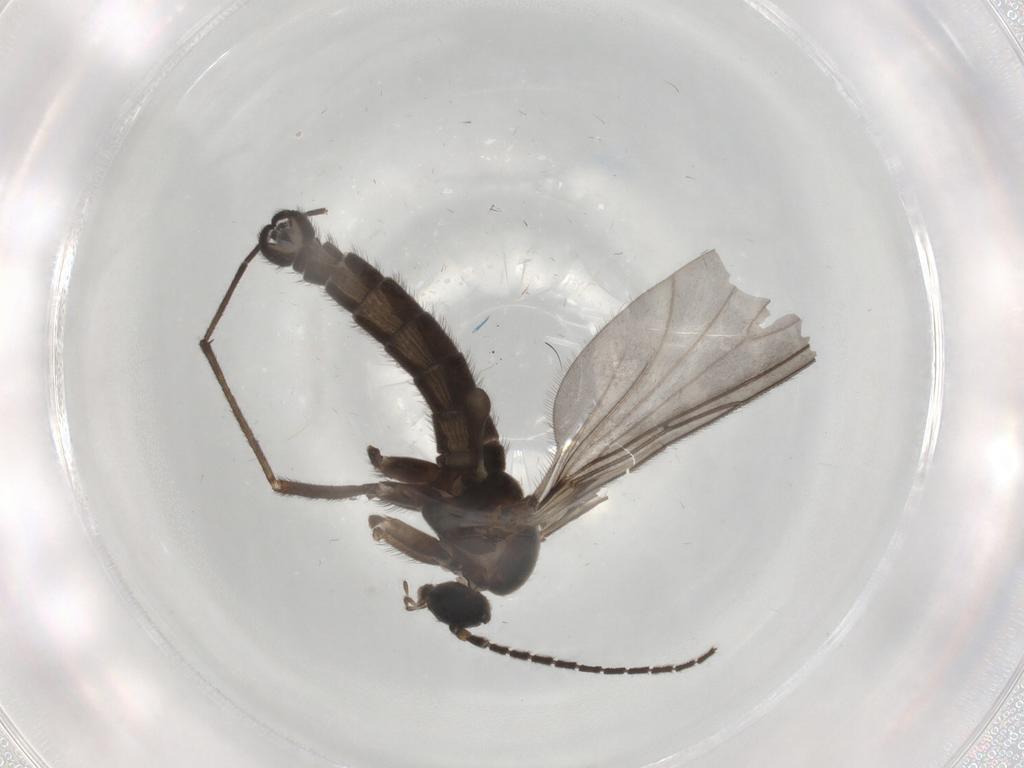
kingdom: Animalia
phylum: Arthropoda
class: Insecta
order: Diptera
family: Sciaridae
